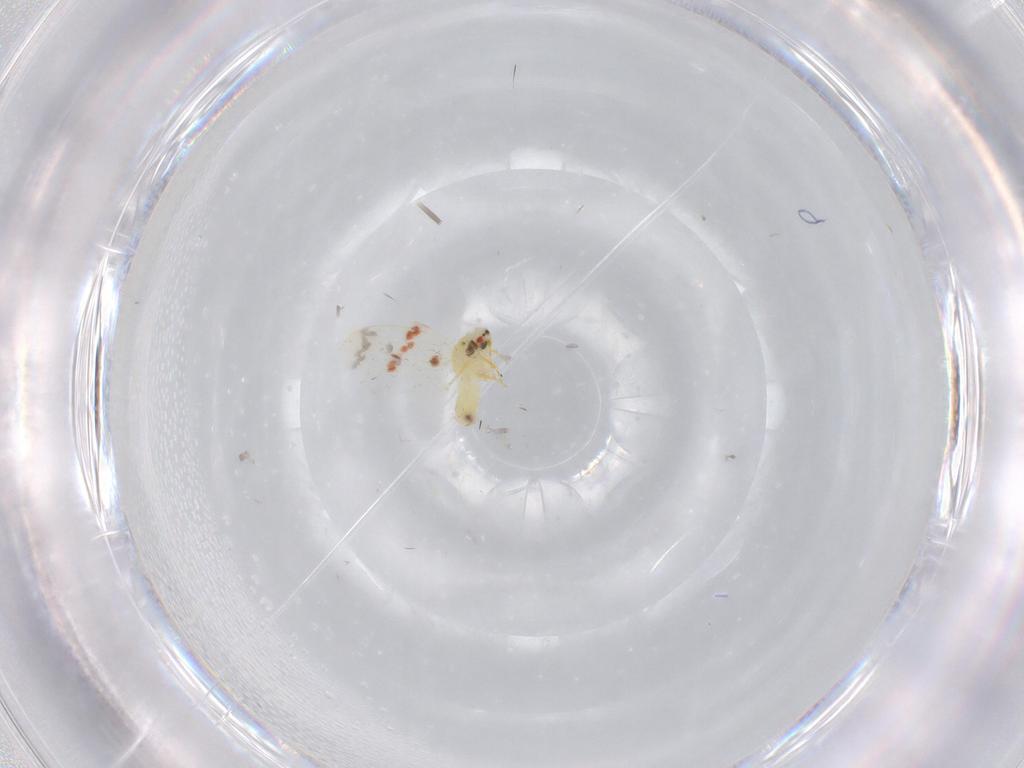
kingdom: Animalia
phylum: Arthropoda
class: Insecta
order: Hemiptera
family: Aleyrodidae
